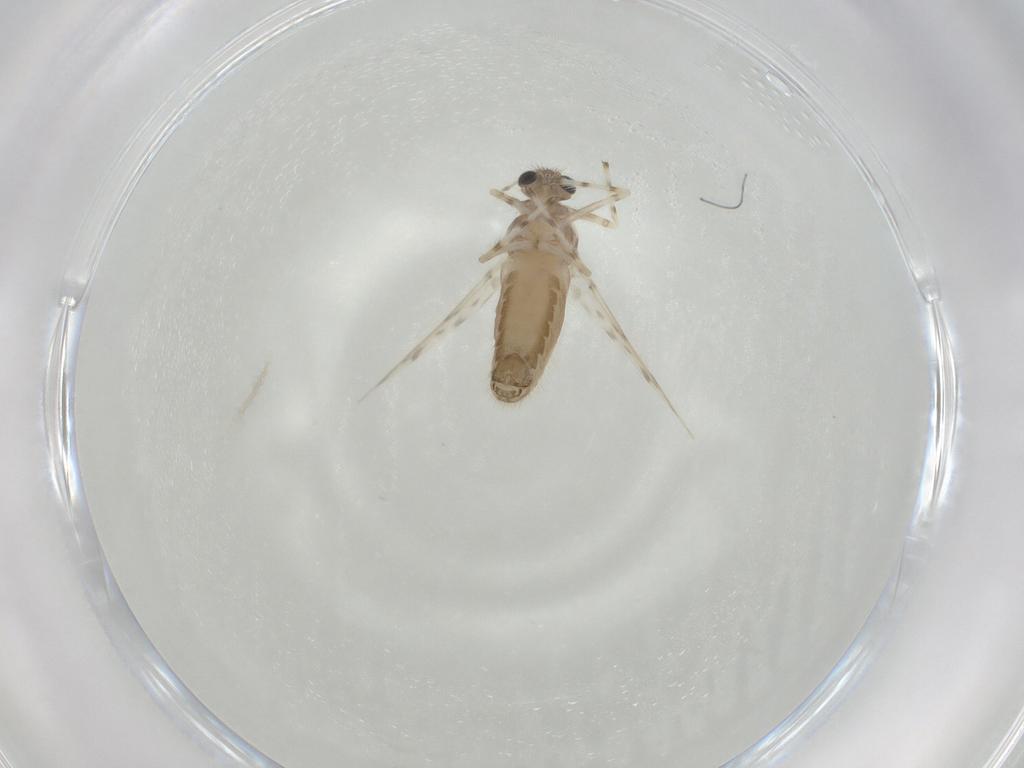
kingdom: Animalia
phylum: Arthropoda
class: Insecta
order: Diptera
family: Chironomidae
